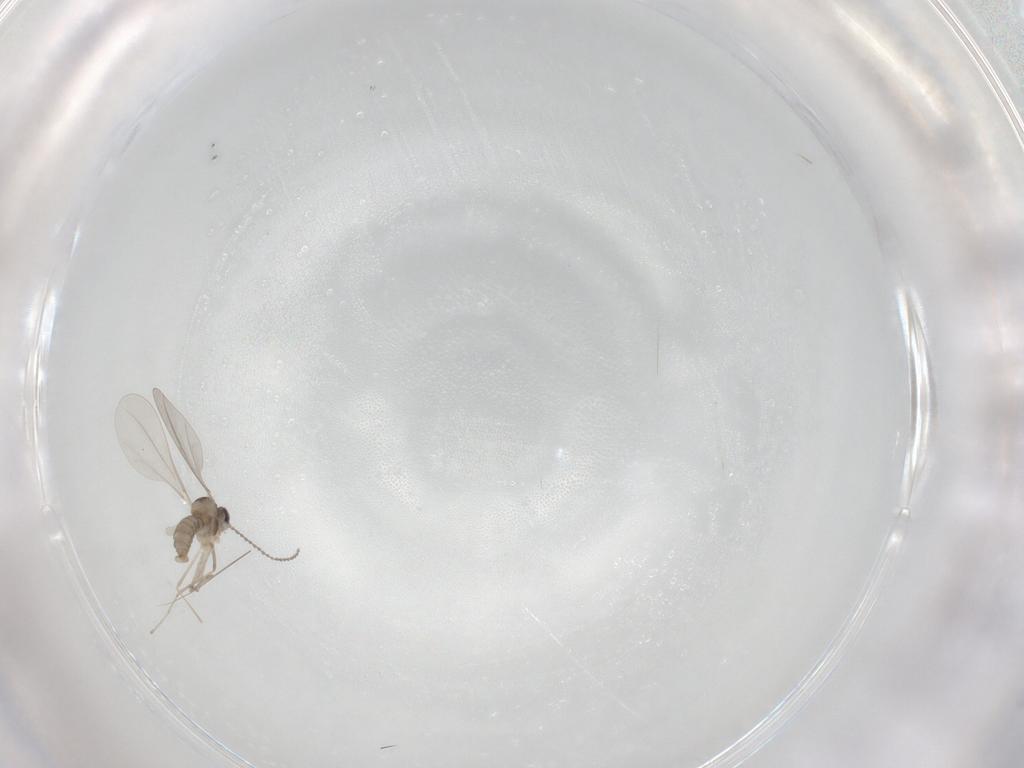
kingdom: Animalia
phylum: Arthropoda
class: Insecta
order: Diptera
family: Cecidomyiidae
